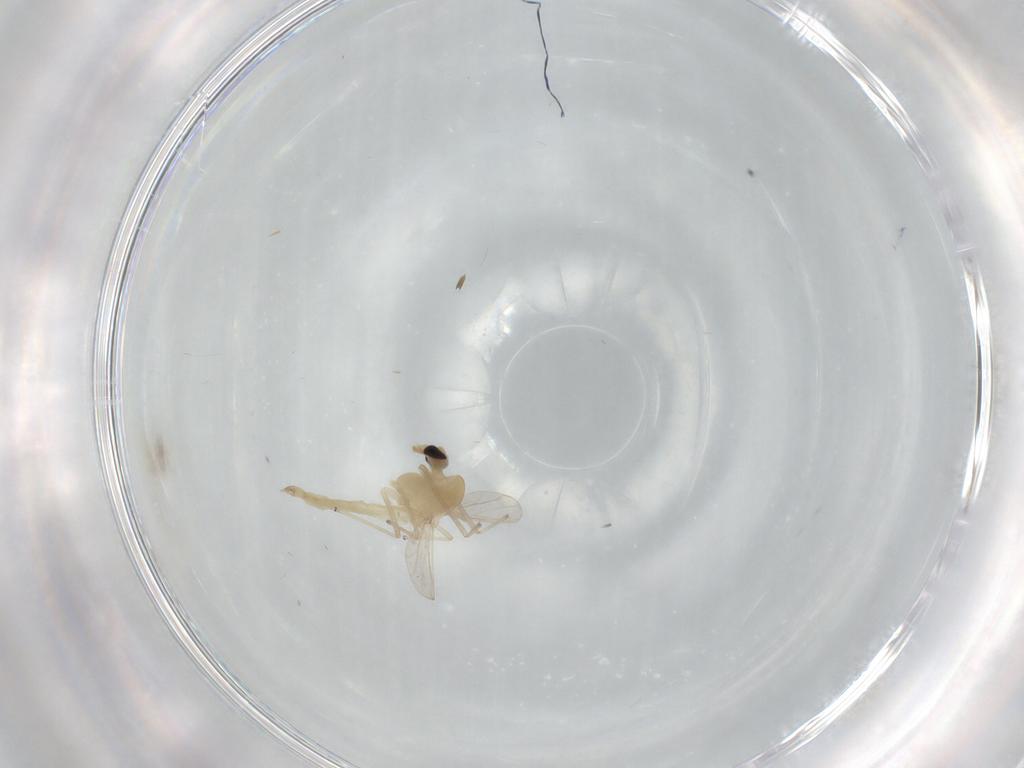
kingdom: Animalia
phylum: Arthropoda
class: Insecta
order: Diptera
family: Chironomidae
